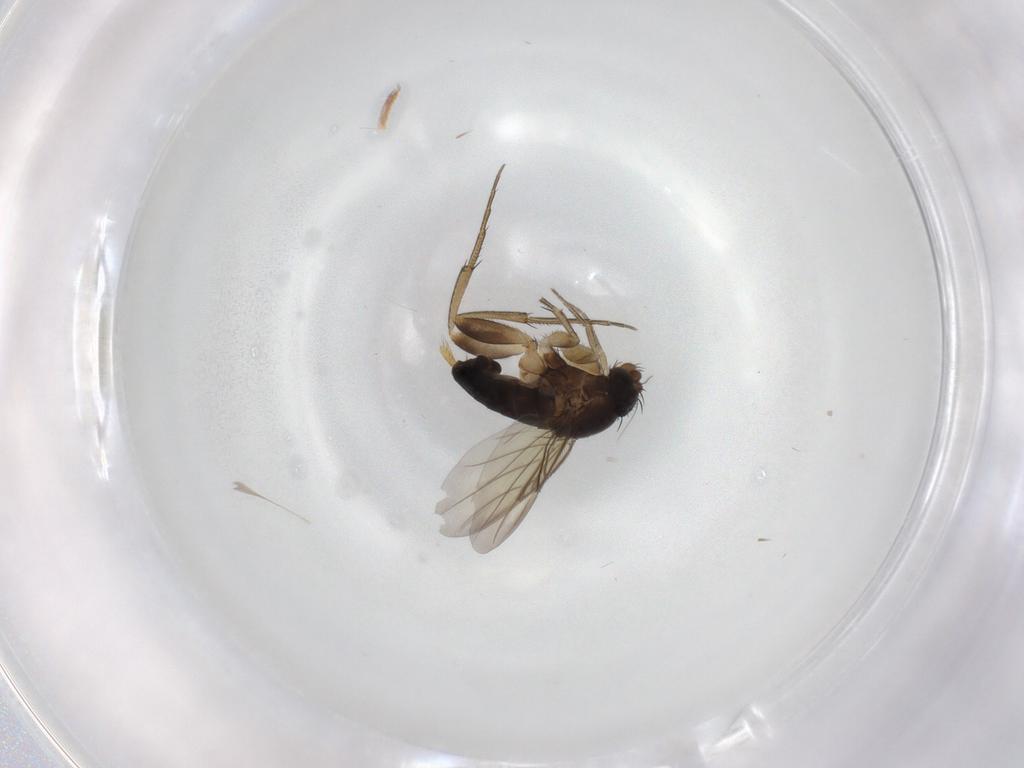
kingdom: Animalia
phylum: Arthropoda
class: Insecta
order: Diptera
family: Phoridae
